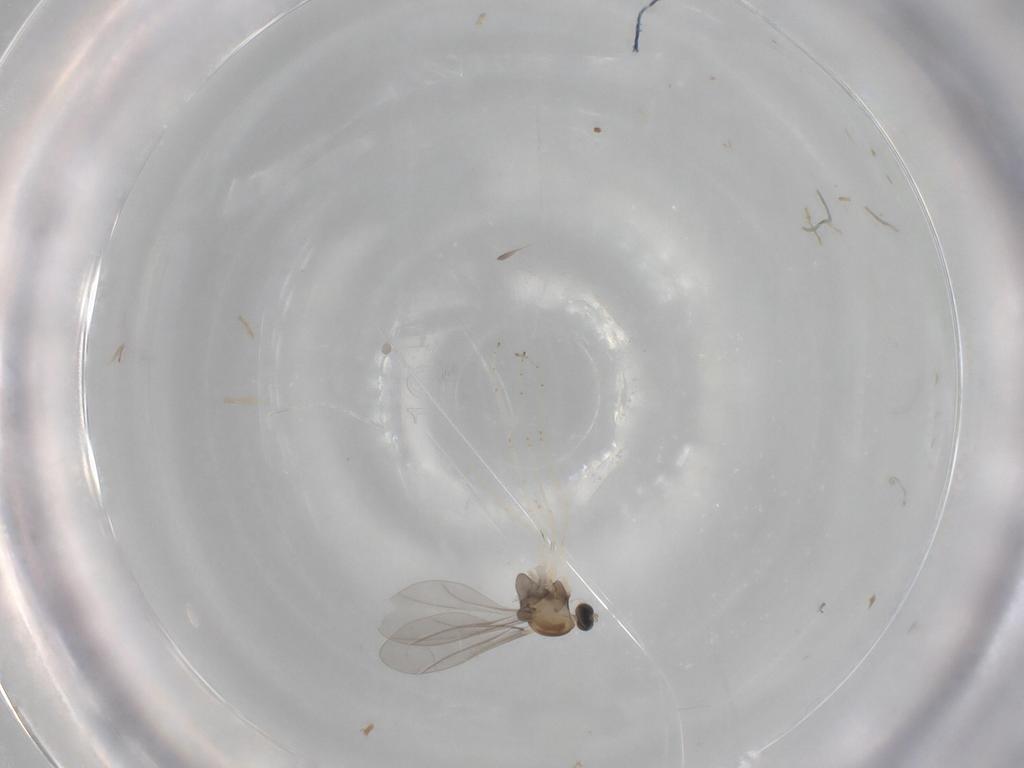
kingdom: Animalia
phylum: Arthropoda
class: Insecta
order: Diptera
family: Cecidomyiidae
